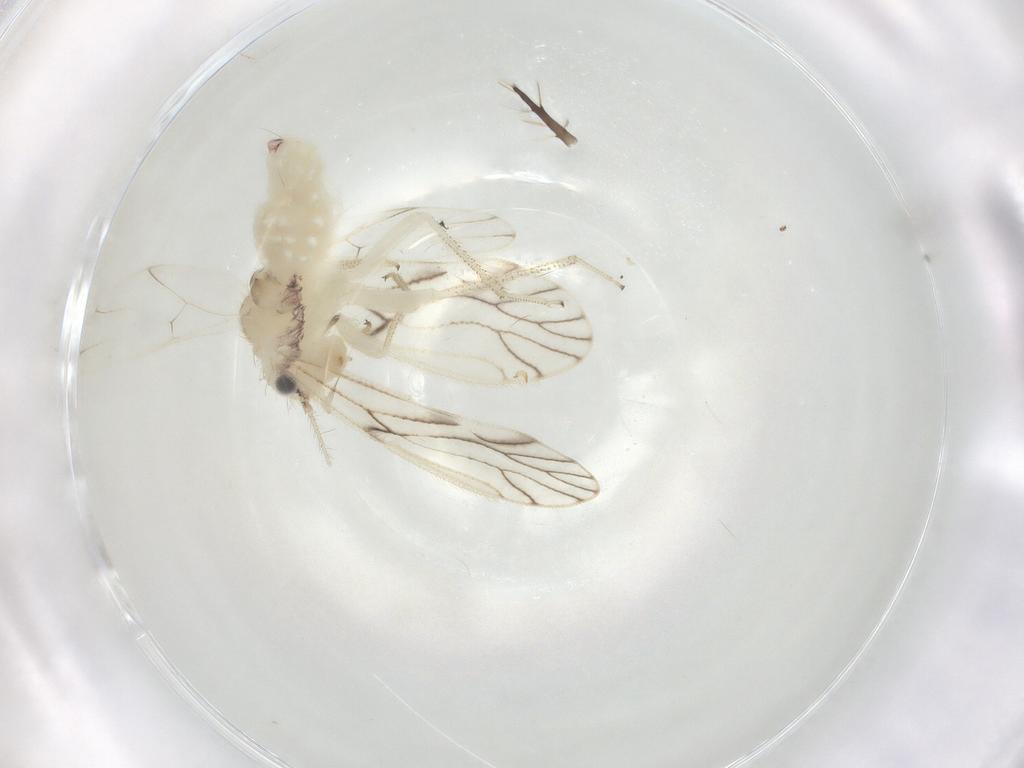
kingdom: Animalia
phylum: Arthropoda
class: Insecta
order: Psocodea
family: Philotarsidae
